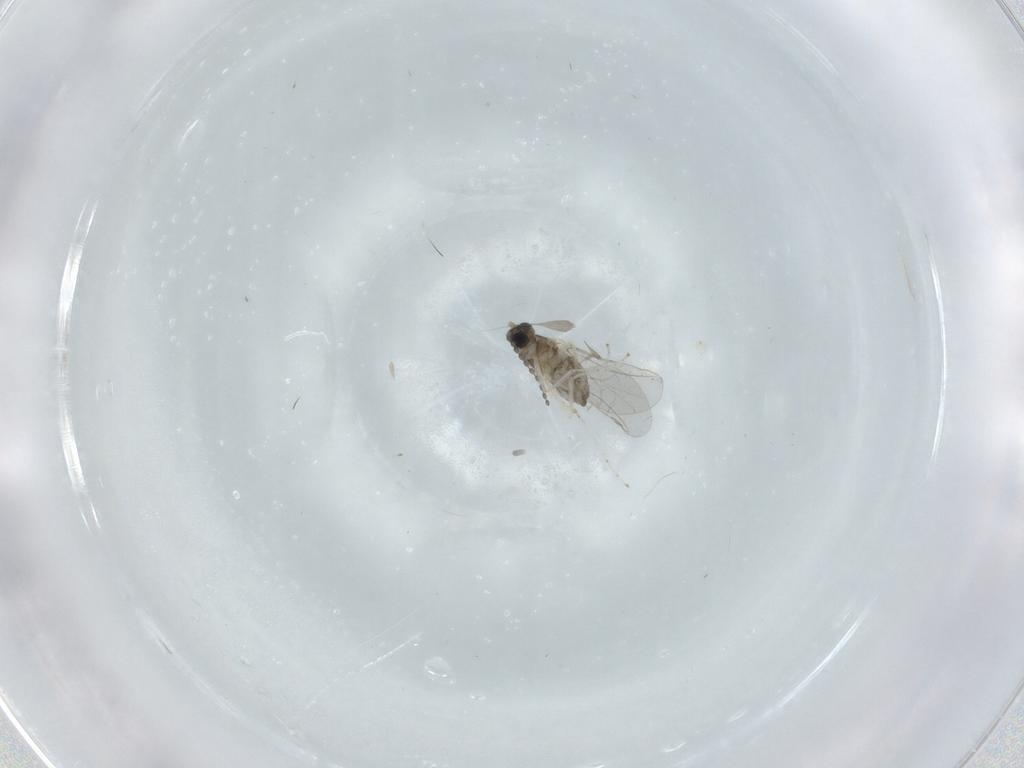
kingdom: Animalia
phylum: Arthropoda
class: Insecta
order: Diptera
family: Cecidomyiidae
